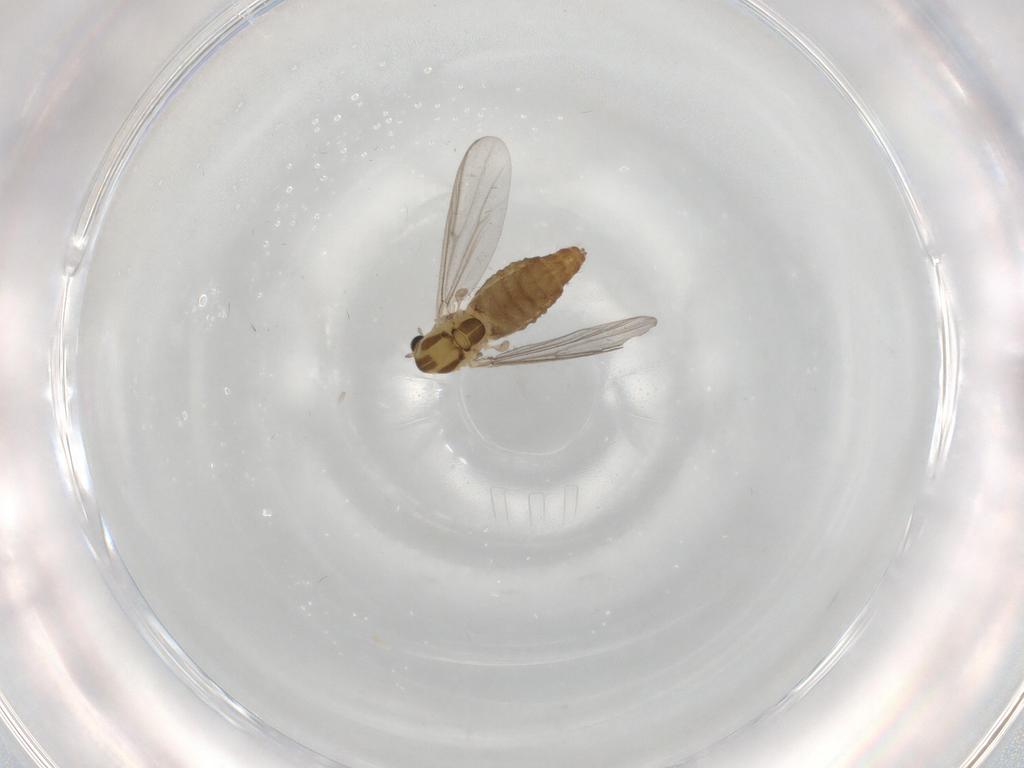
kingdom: Animalia
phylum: Arthropoda
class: Insecta
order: Diptera
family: Chironomidae
